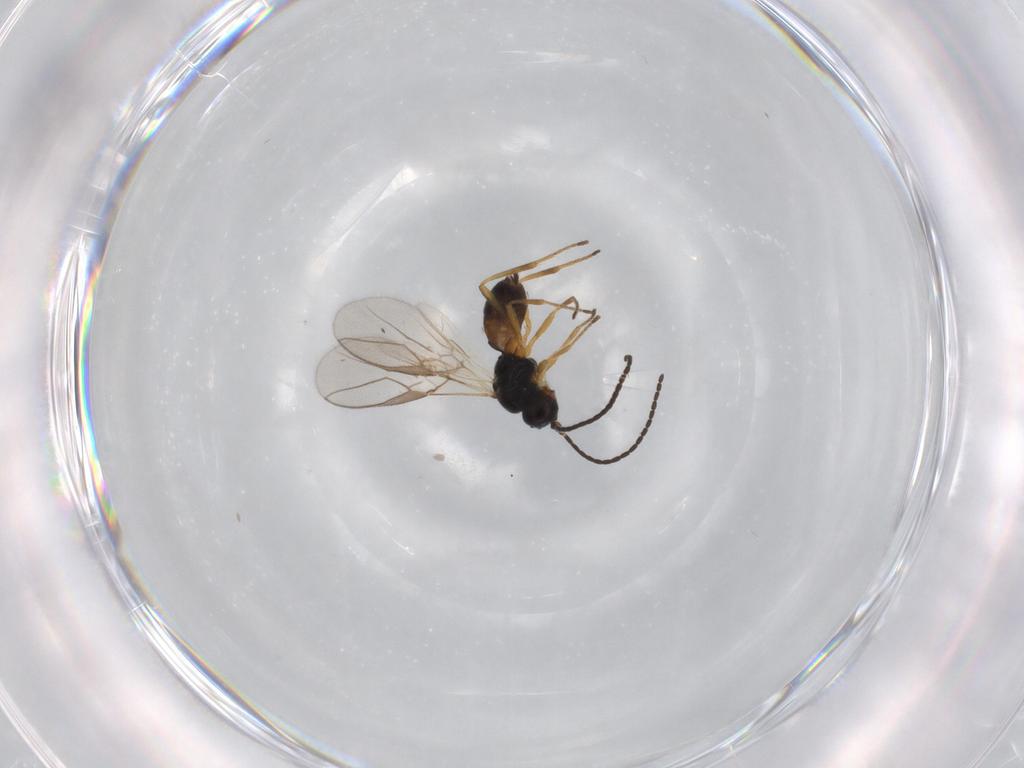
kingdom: Animalia
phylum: Arthropoda
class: Insecta
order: Hymenoptera
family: Braconidae
